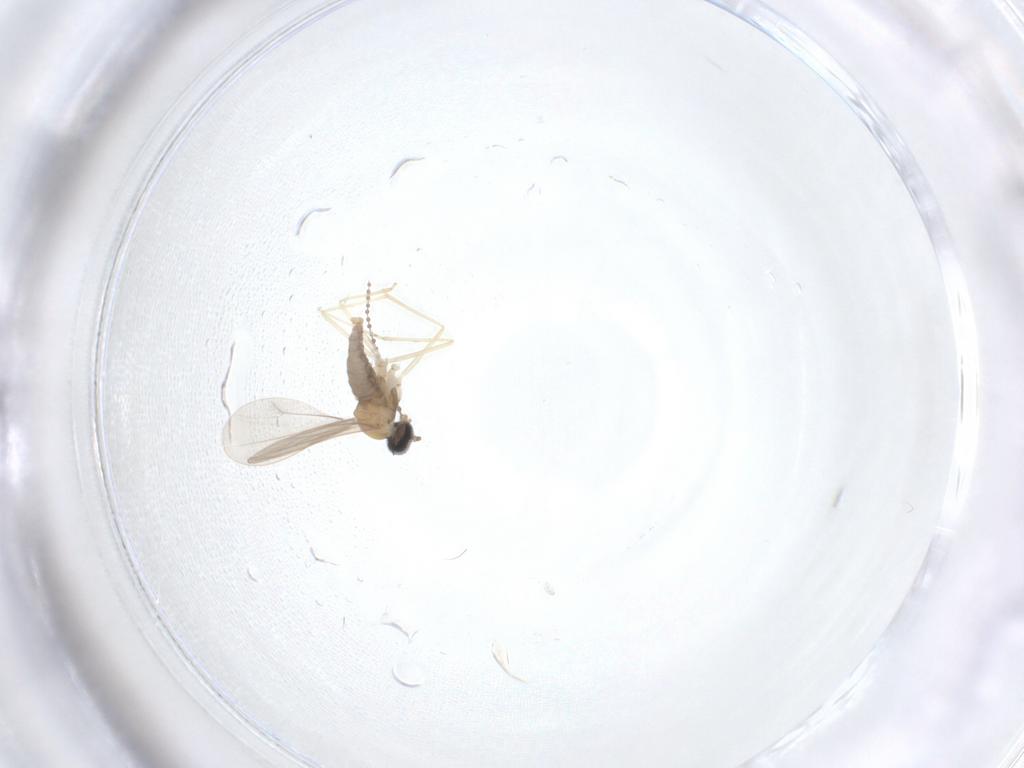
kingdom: Animalia
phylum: Arthropoda
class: Insecta
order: Diptera
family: Cecidomyiidae
